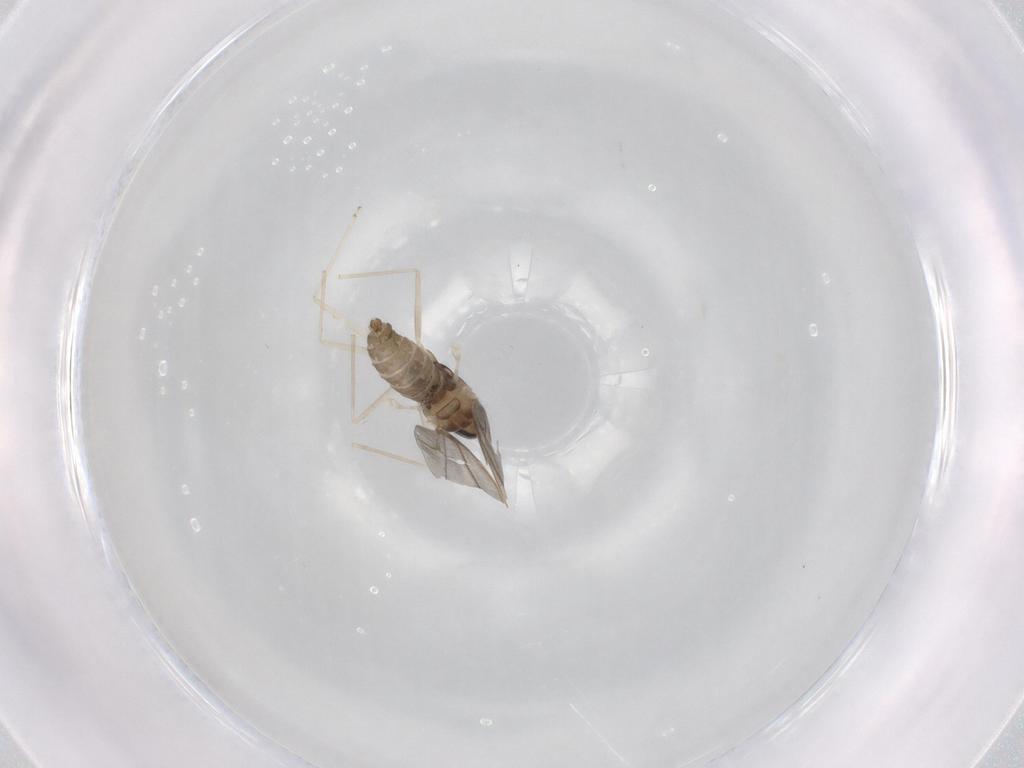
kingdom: Animalia
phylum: Arthropoda
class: Insecta
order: Diptera
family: Cecidomyiidae
